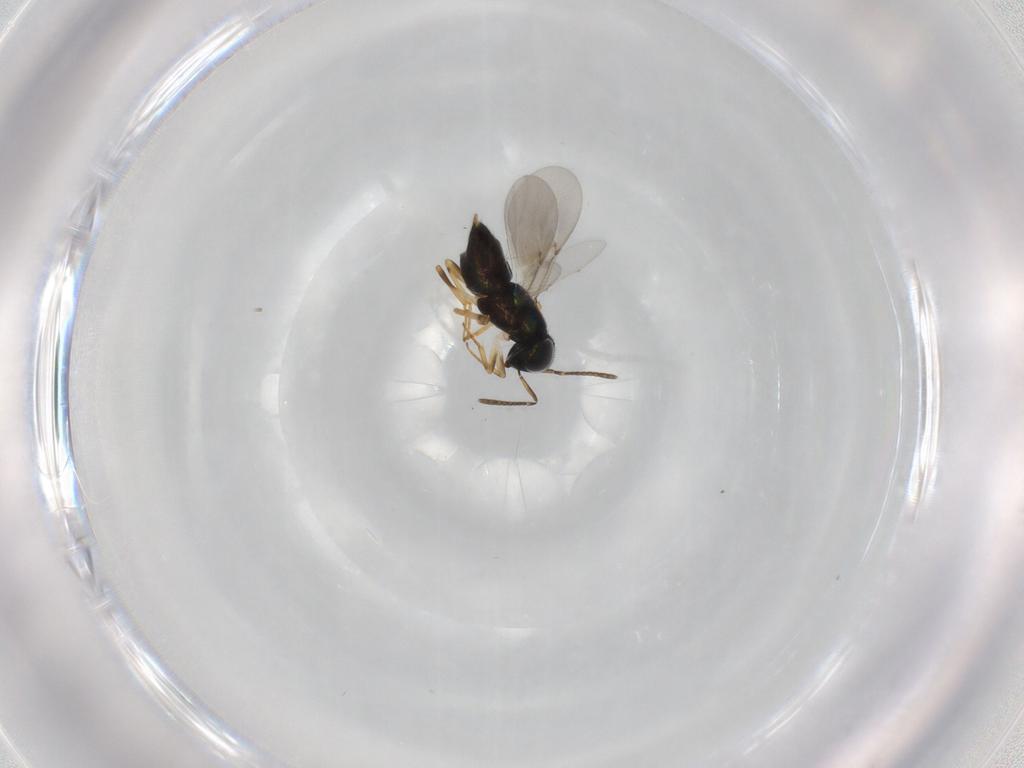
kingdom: Animalia
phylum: Arthropoda
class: Insecta
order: Hymenoptera
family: Encyrtidae
